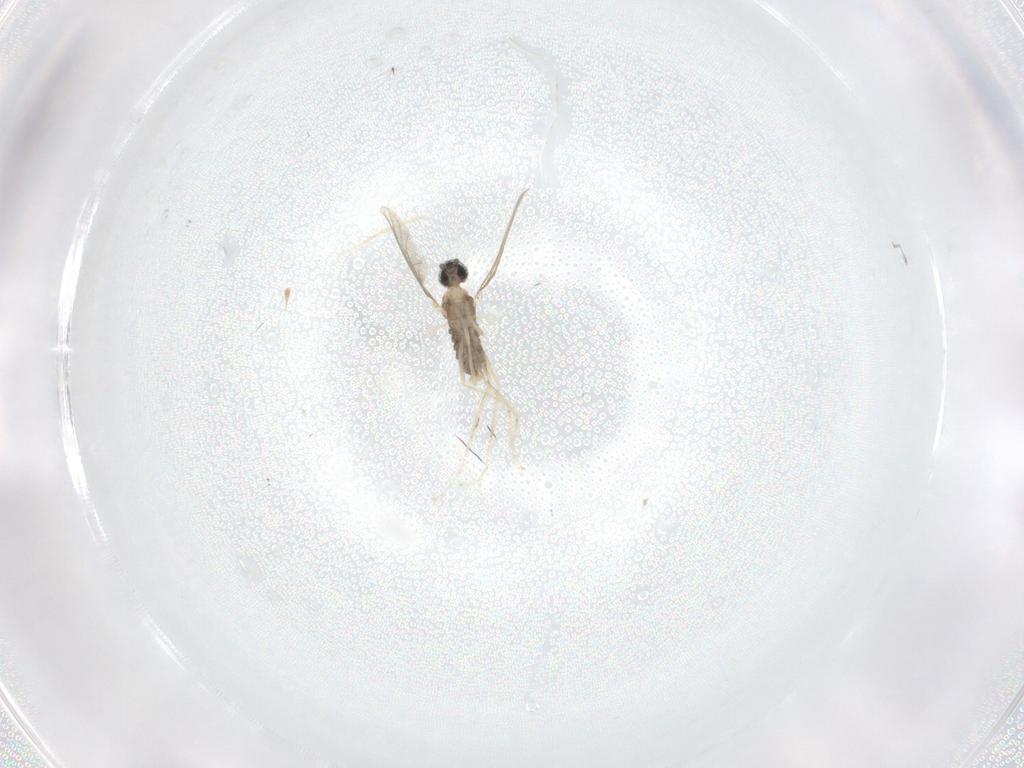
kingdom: Animalia
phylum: Arthropoda
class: Insecta
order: Diptera
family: Cecidomyiidae
